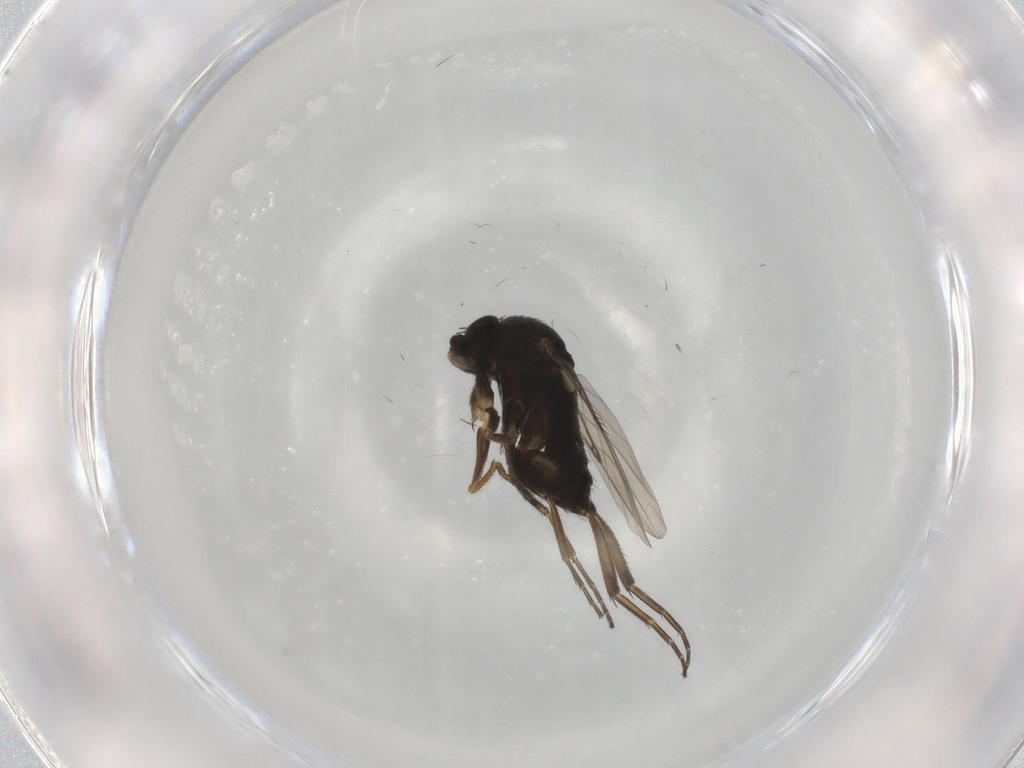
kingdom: Animalia
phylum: Arthropoda
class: Insecta
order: Diptera
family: Phoridae
